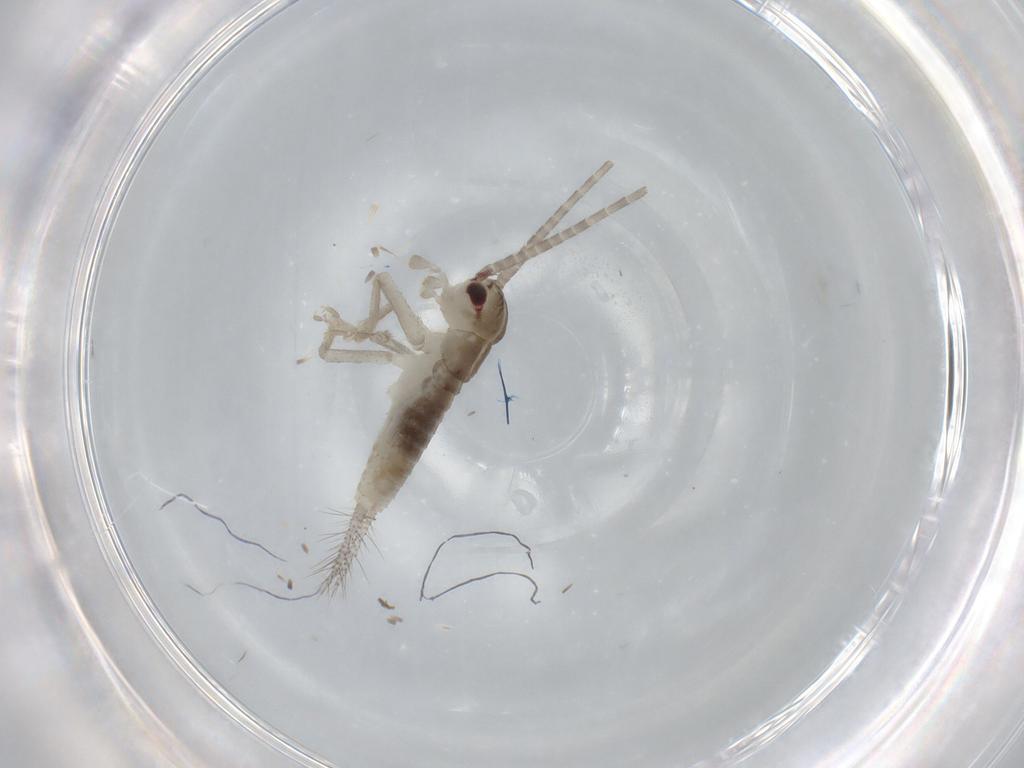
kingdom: Animalia
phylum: Arthropoda
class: Insecta
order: Orthoptera
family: Gryllidae
